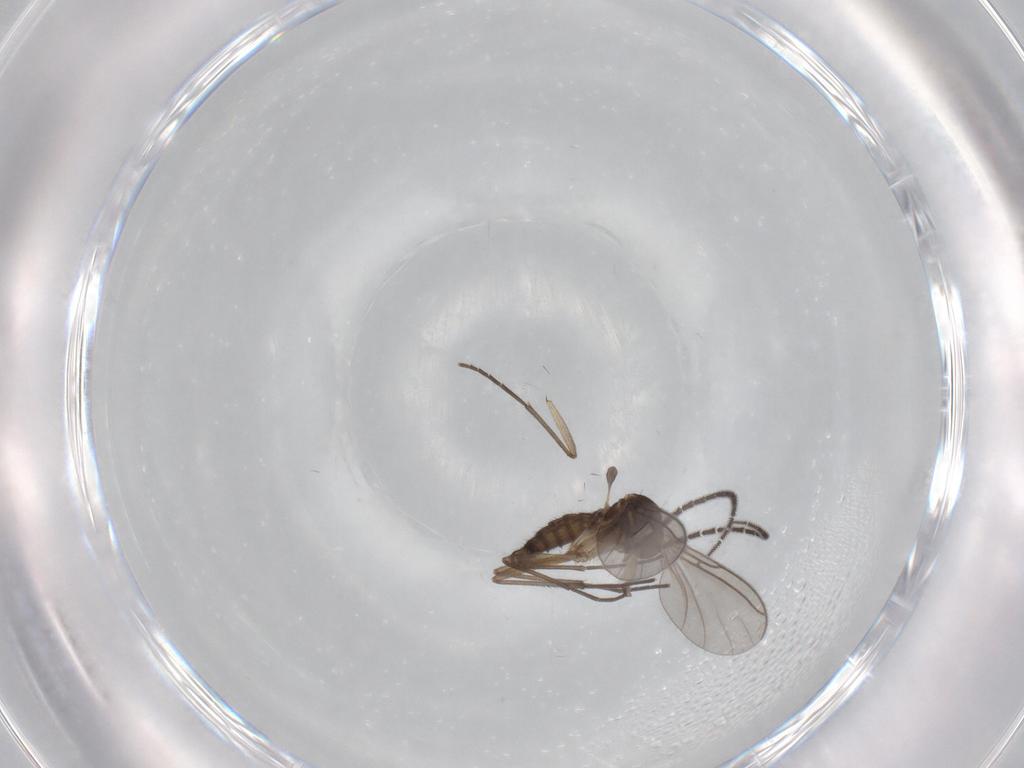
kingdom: Animalia
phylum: Arthropoda
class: Insecta
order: Diptera
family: Sciaridae
